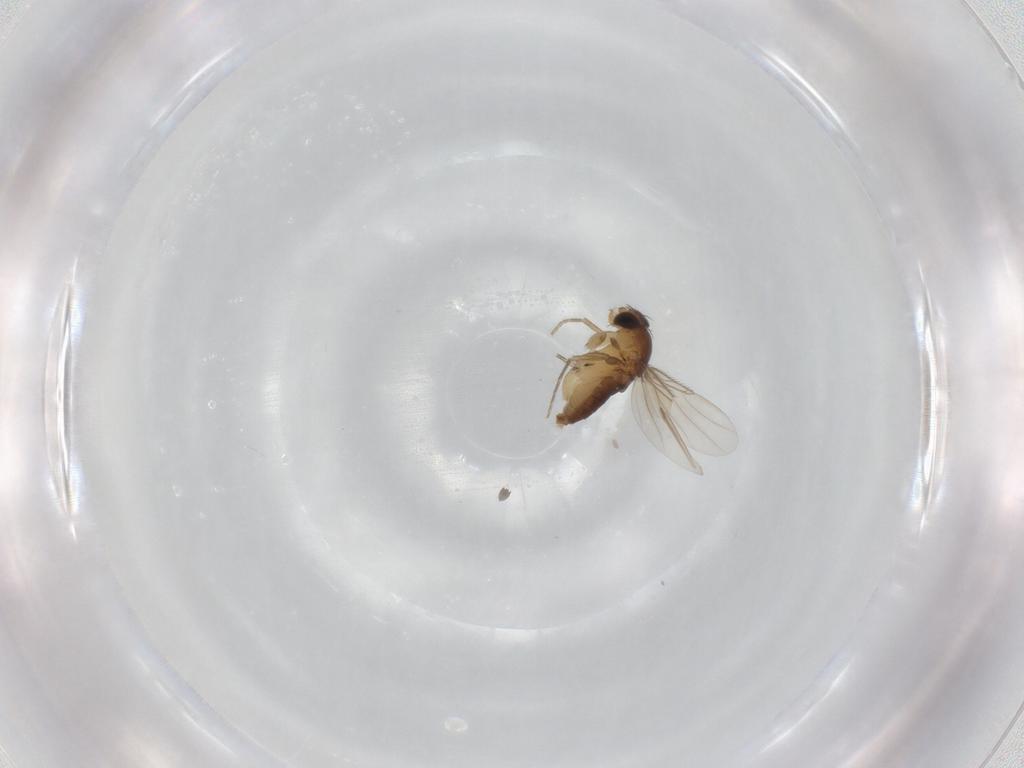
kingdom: Animalia
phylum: Arthropoda
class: Insecta
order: Diptera
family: Phoridae
